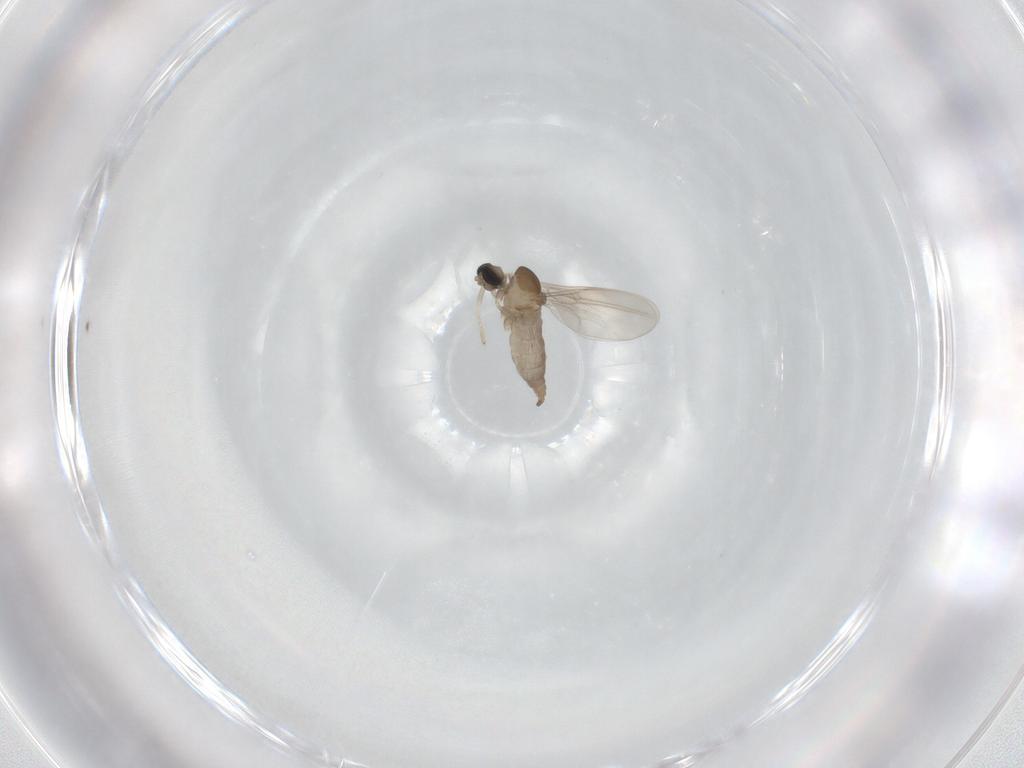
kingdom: Animalia
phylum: Arthropoda
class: Insecta
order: Diptera
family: Cecidomyiidae
